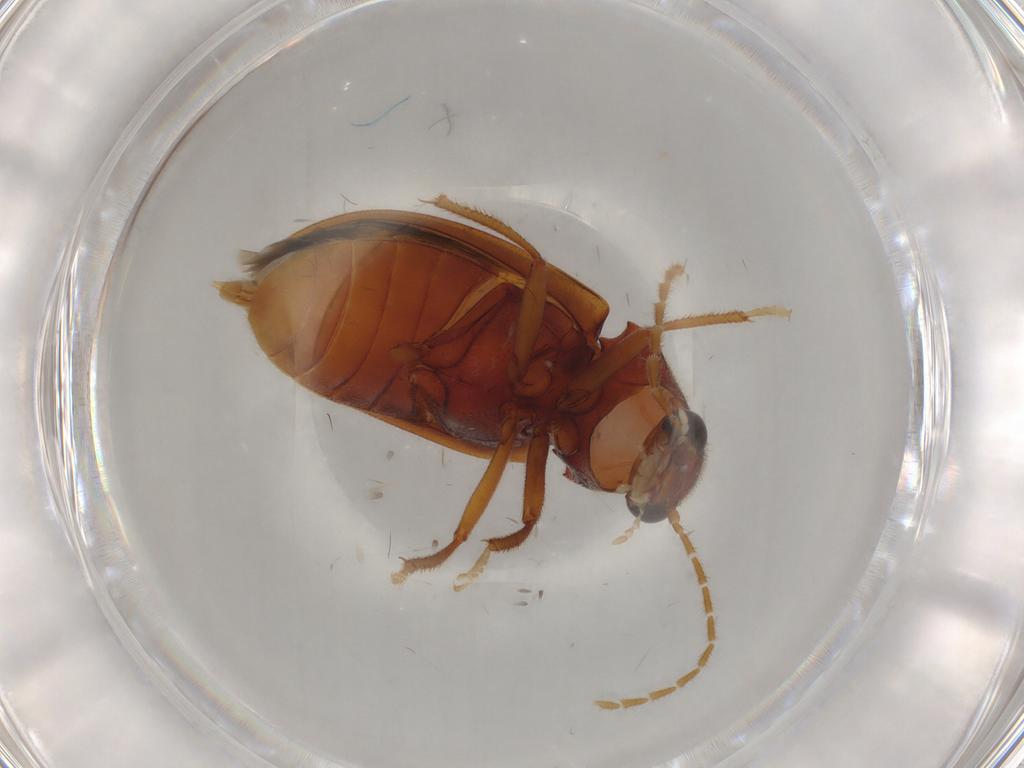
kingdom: Animalia
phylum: Arthropoda
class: Insecta
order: Coleoptera
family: Ptilodactylidae
